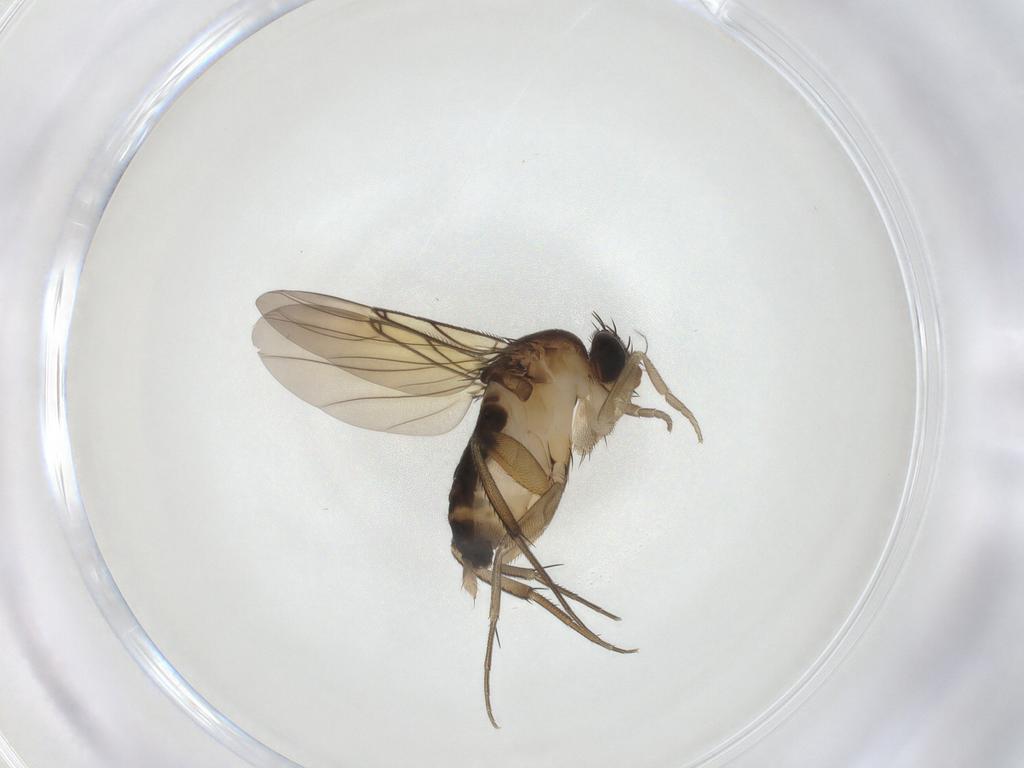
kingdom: Animalia
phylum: Arthropoda
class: Insecta
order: Diptera
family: Phoridae
